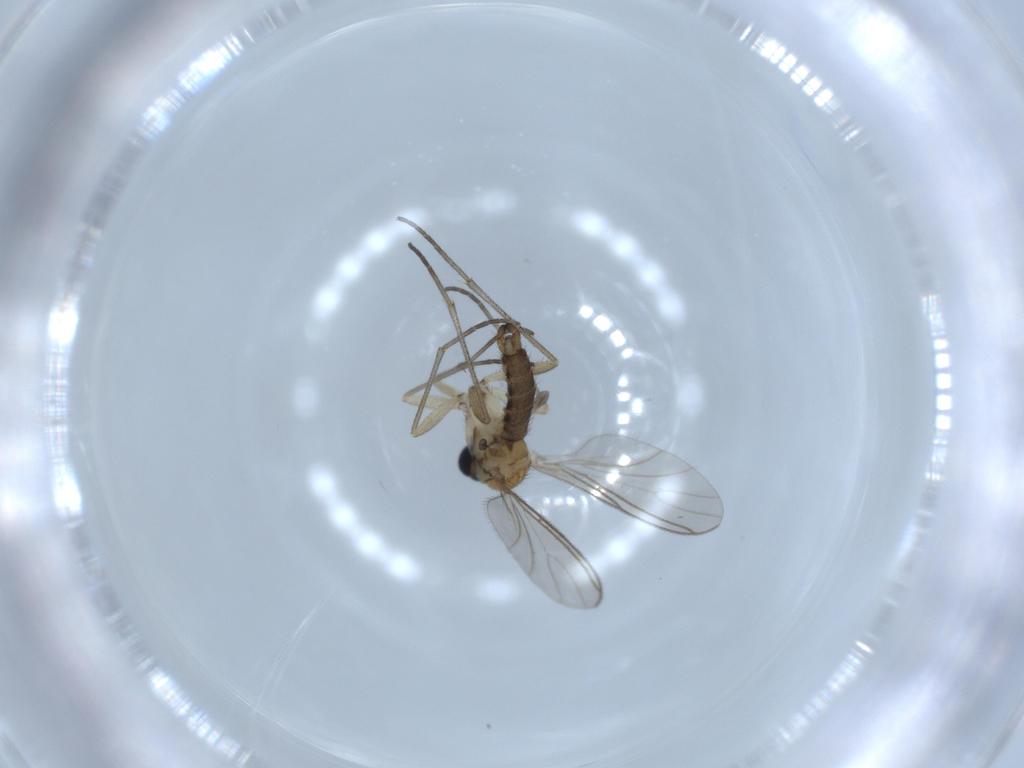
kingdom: Animalia
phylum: Arthropoda
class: Insecta
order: Diptera
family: Sciaridae
